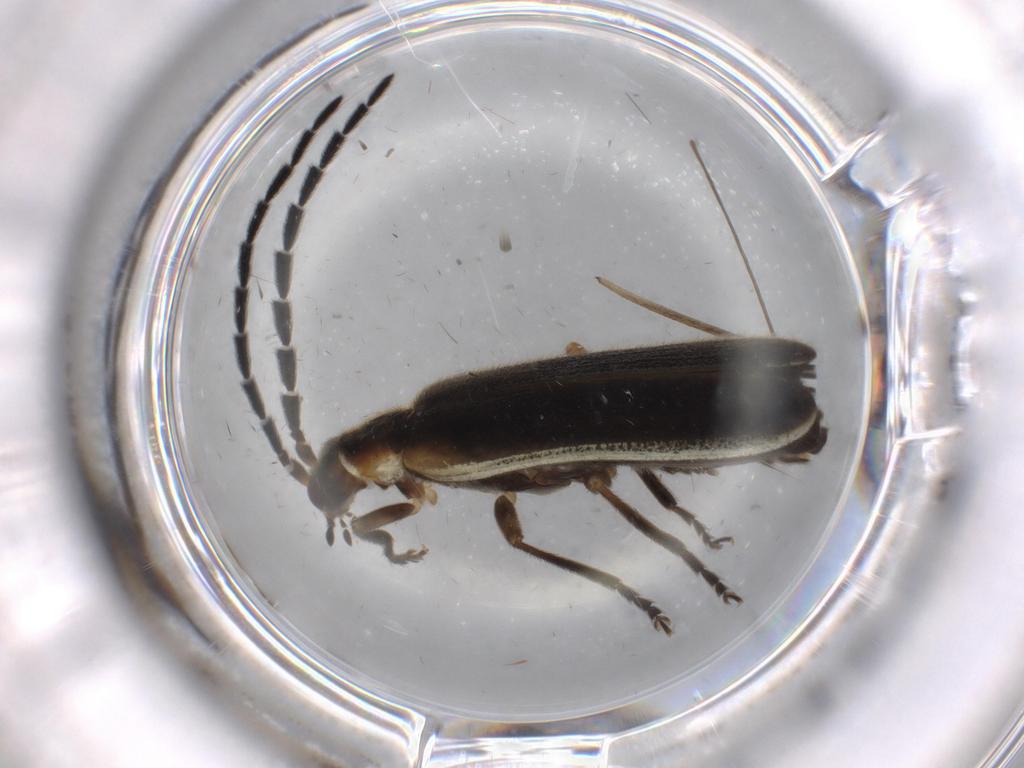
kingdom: Animalia
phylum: Arthropoda
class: Insecta
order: Coleoptera
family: Cantharidae
